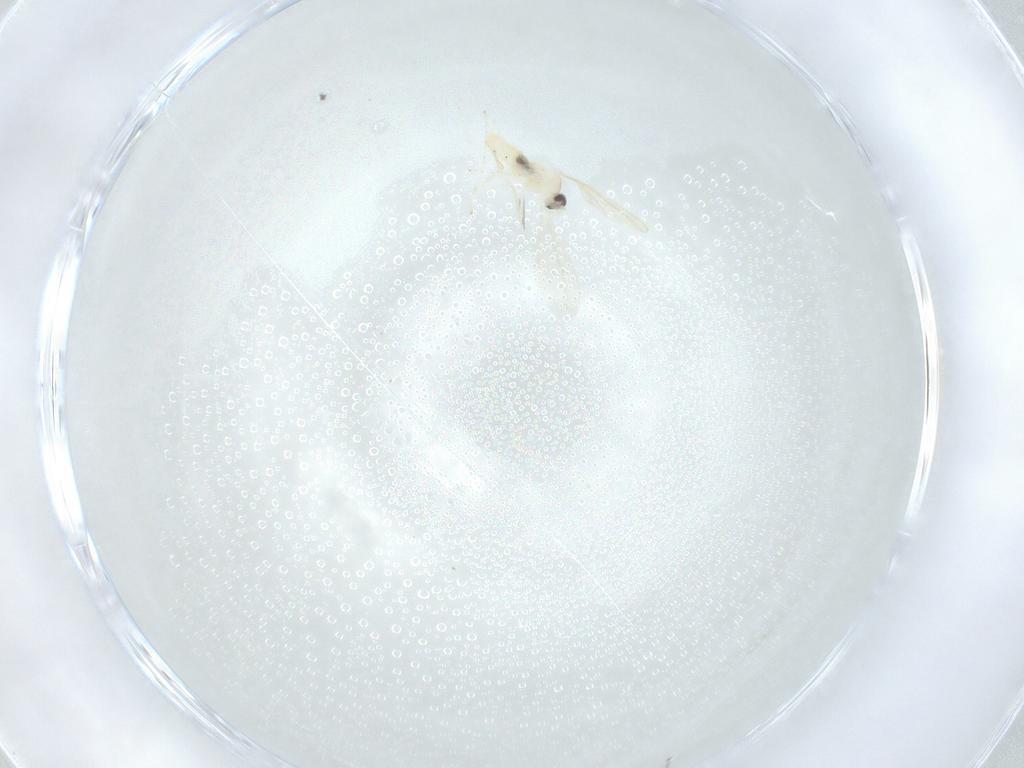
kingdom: Animalia
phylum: Arthropoda
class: Insecta
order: Diptera
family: Cecidomyiidae
